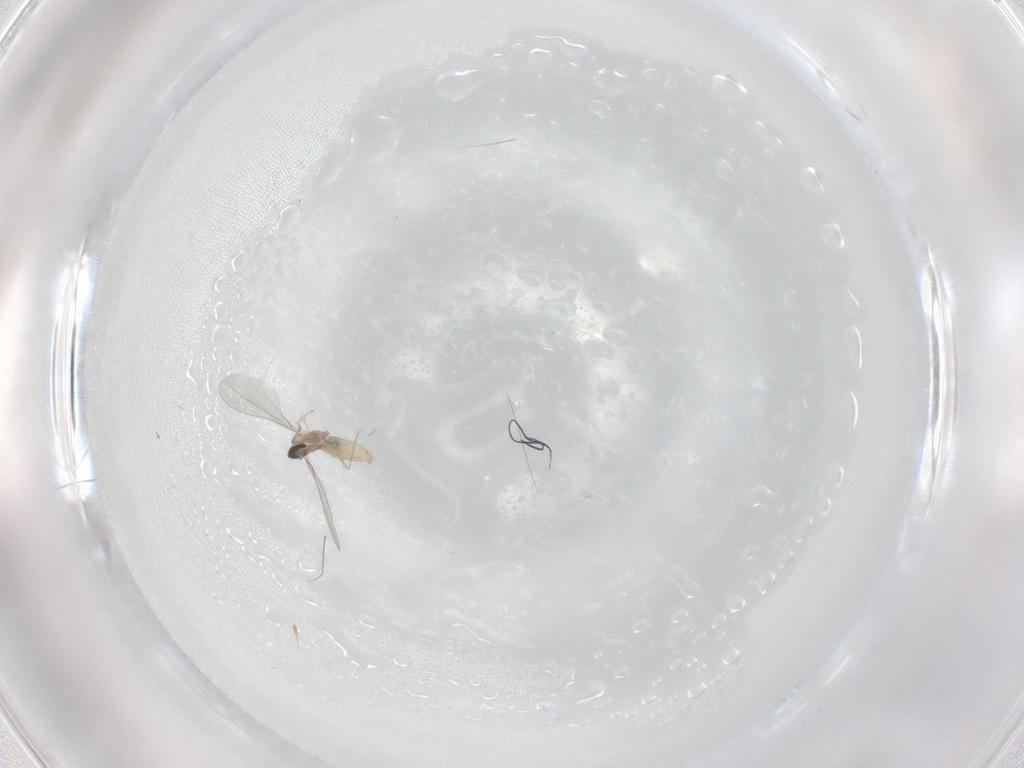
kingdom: Animalia
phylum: Arthropoda
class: Insecta
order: Diptera
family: Cecidomyiidae
